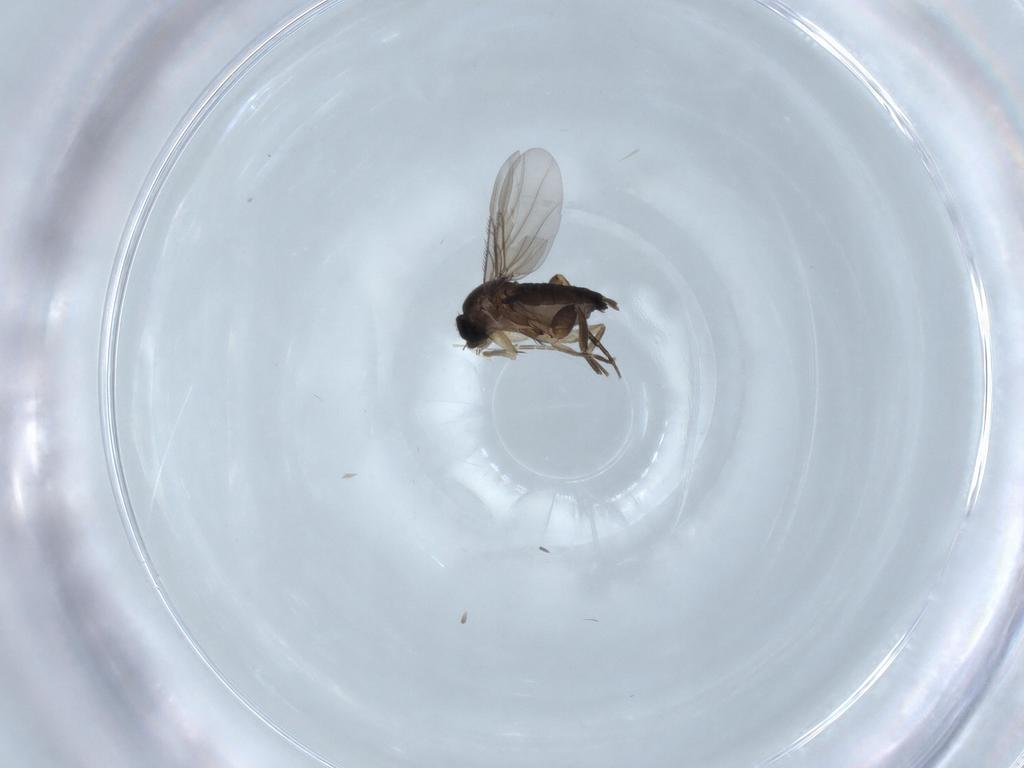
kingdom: Animalia
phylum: Arthropoda
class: Insecta
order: Diptera
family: Phoridae
